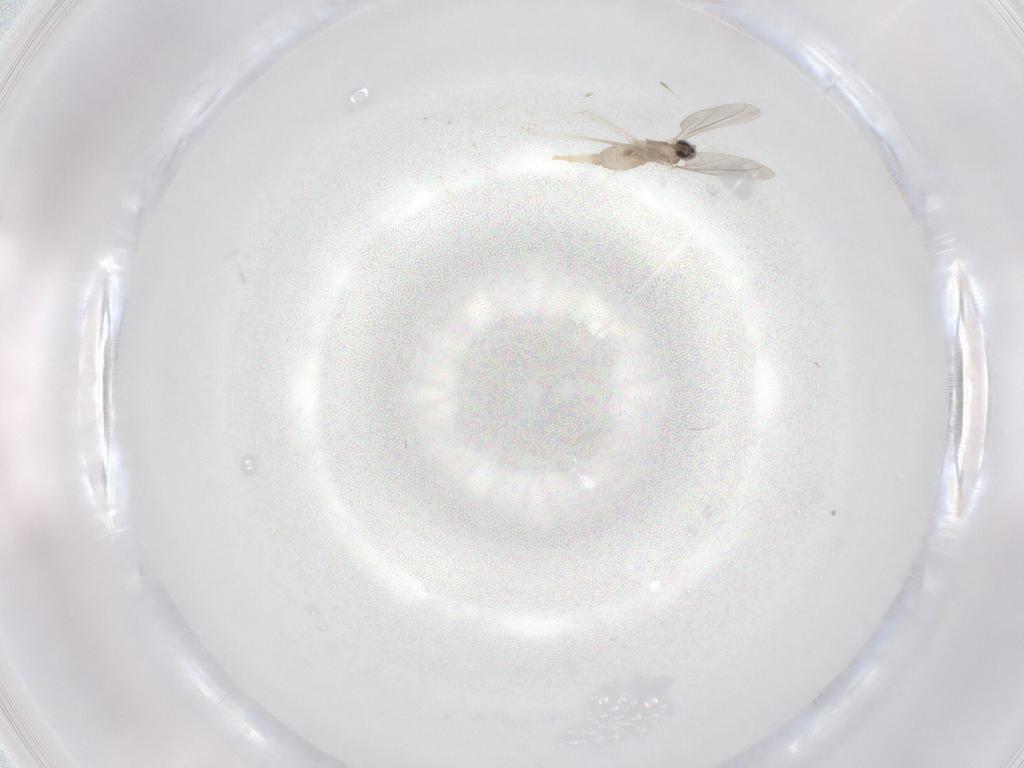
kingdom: Animalia
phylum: Arthropoda
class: Insecta
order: Diptera
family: Cecidomyiidae
